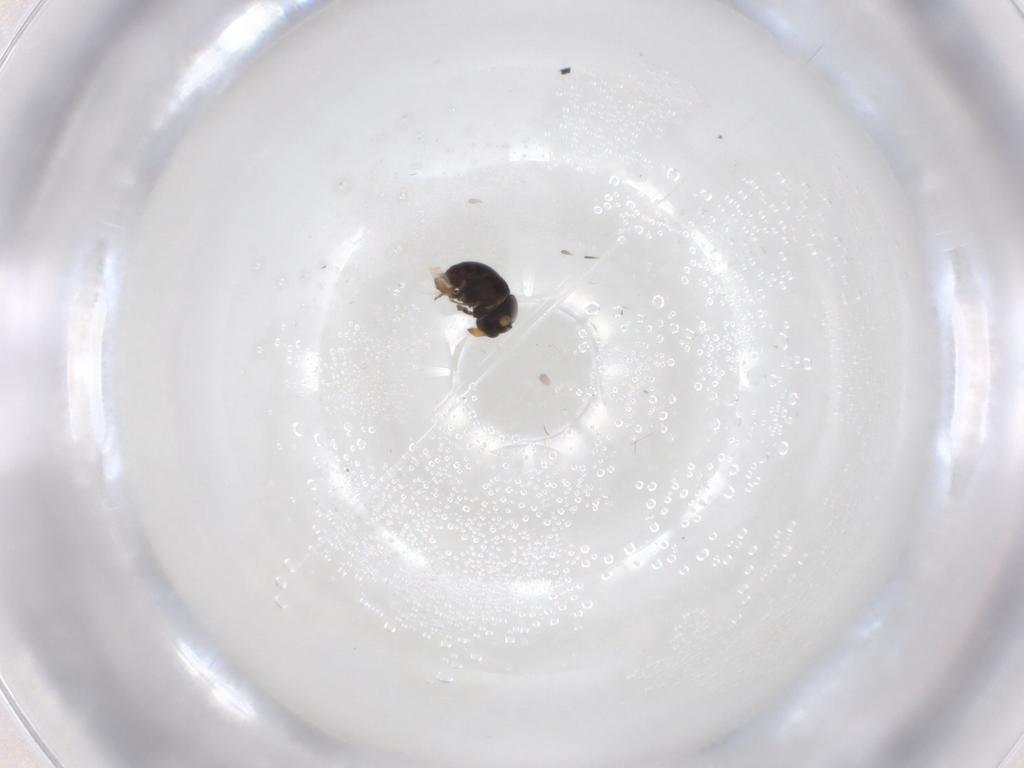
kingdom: Animalia
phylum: Arthropoda
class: Insecta
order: Hymenoptera
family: Scelionidae
